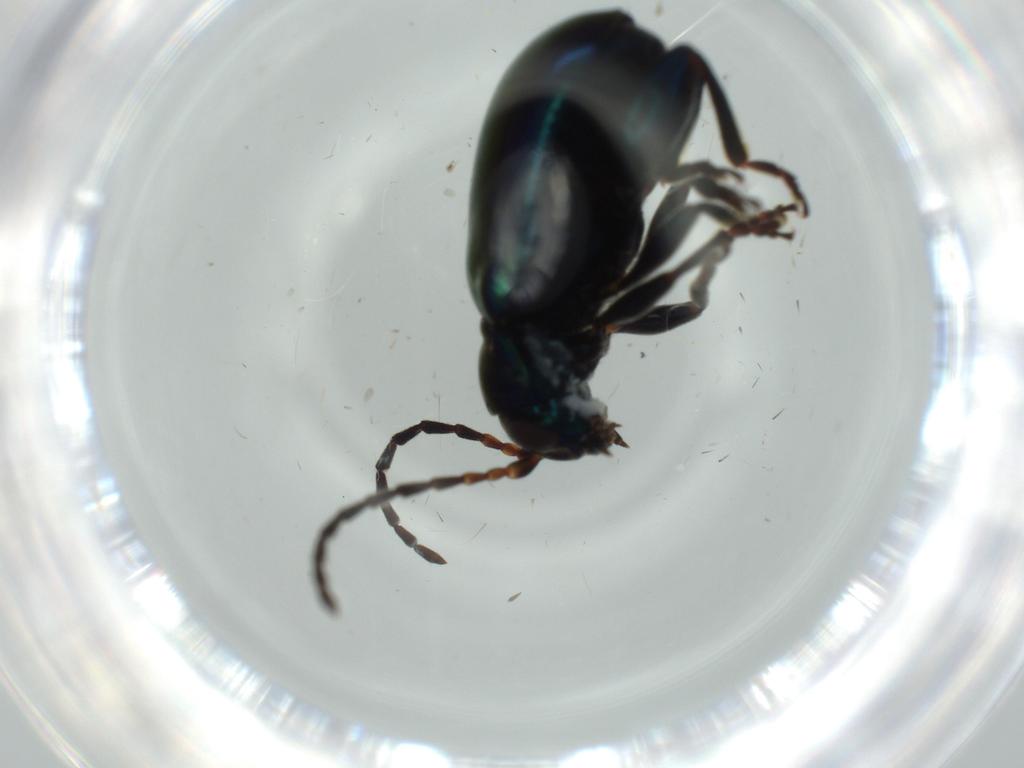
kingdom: Animalia
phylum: Arthropoda
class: Insecta
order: Coleoptera
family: Chrysomelidae
